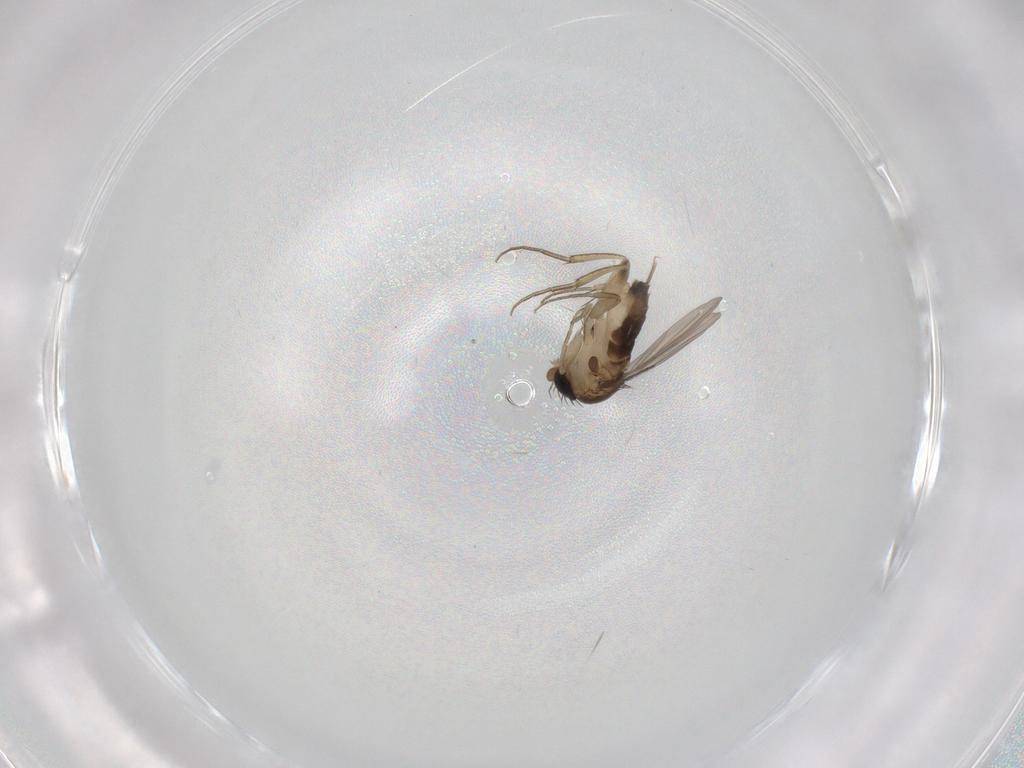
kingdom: Animalia
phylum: Arthropoda
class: Insecta
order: Diptera
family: Phoridae
